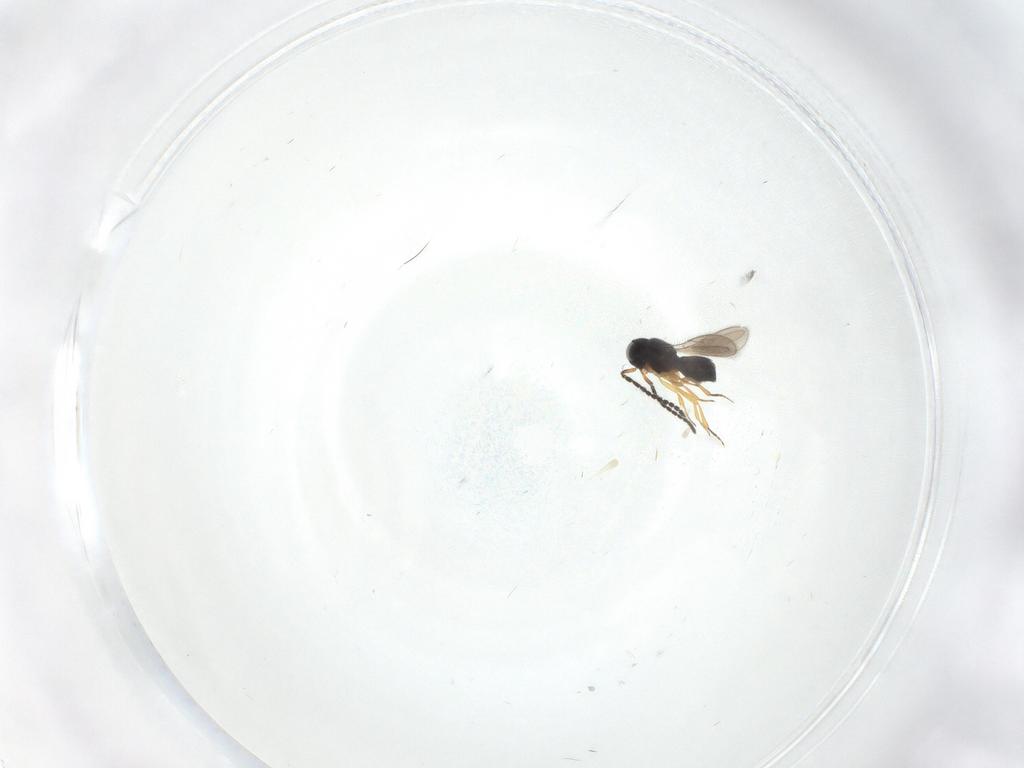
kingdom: Animalia
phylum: Arthropoda
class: Insecta
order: Hymenoptera
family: Scelionidae
